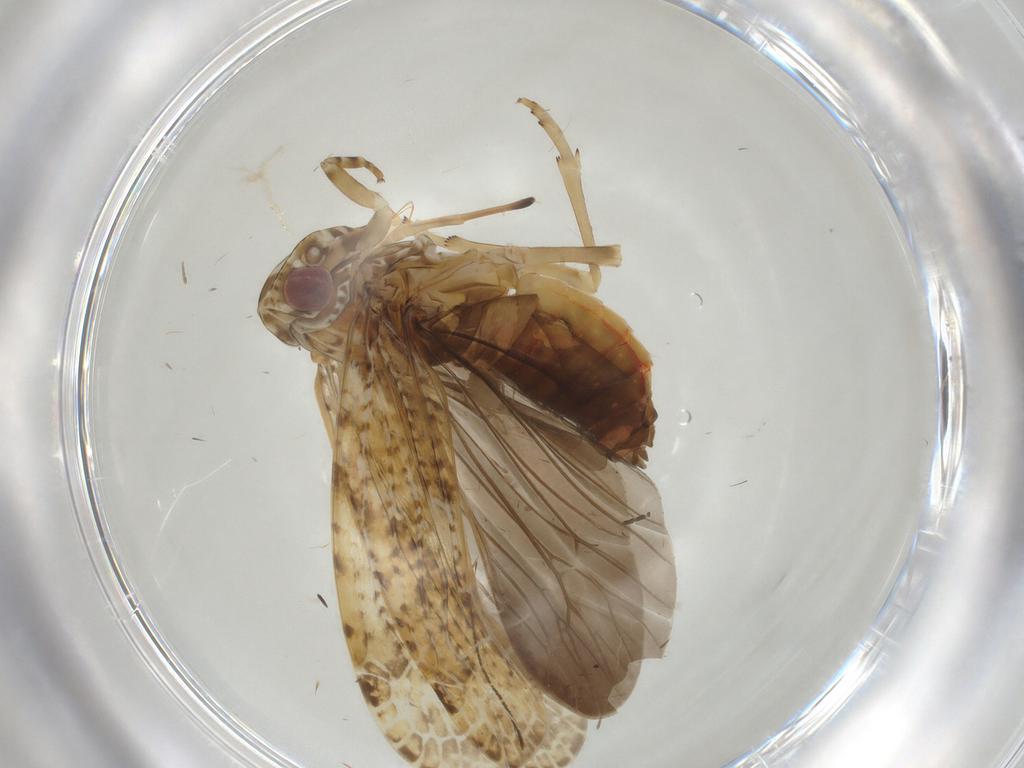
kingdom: Animalia
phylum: Arthropoda
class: Insecta
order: Lepidoptera
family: Tineidae
